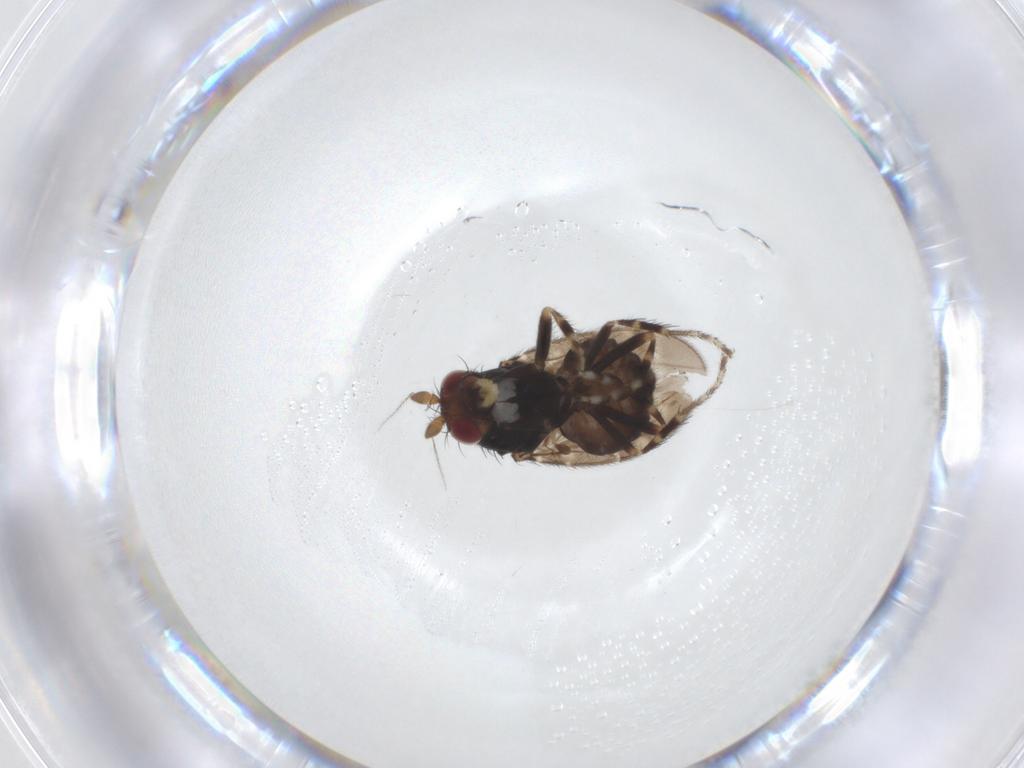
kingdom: Animalia
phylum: Arthropoda
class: Insecta
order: Diptera
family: Sphaeroceridae
